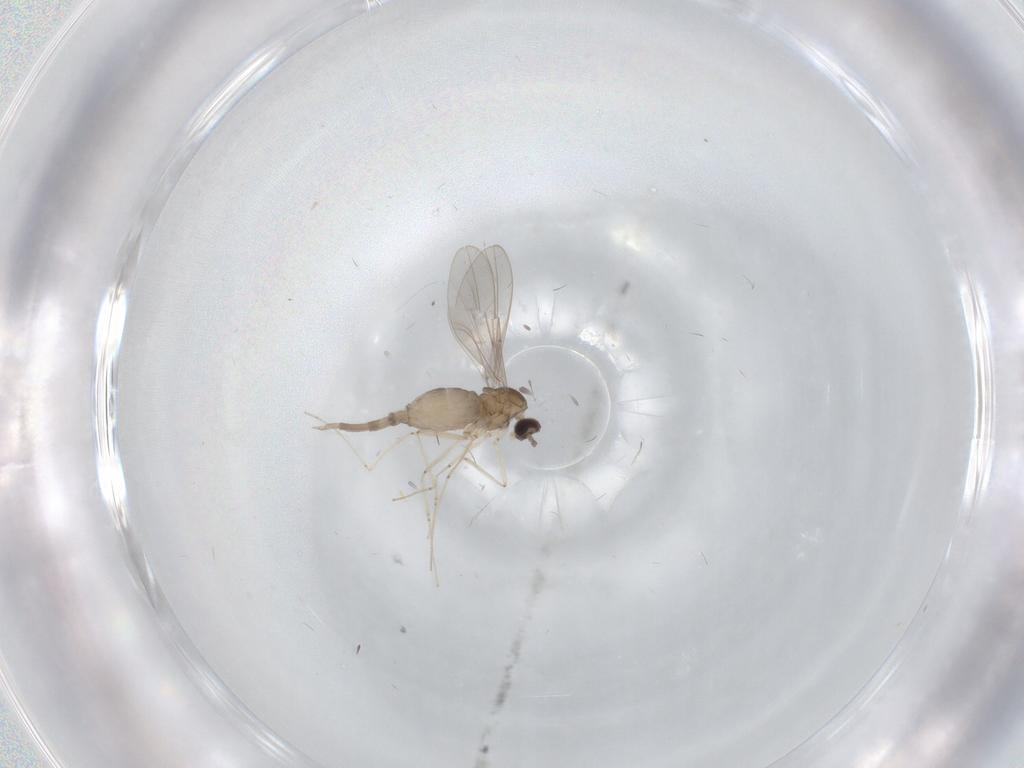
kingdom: Animalia
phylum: Arthropoda
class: Insecta
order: Diptera
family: Cecidomyiidae
